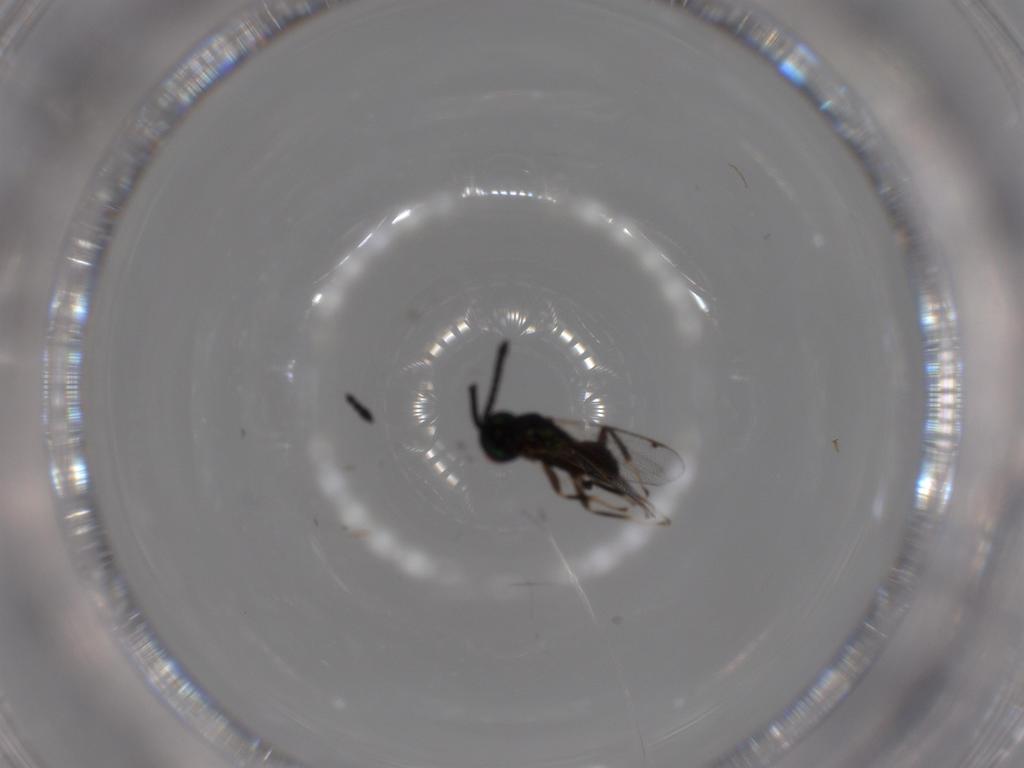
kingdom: Animalia
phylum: Arthropoda
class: Insecta
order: Hymenoptera
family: Torymidae
